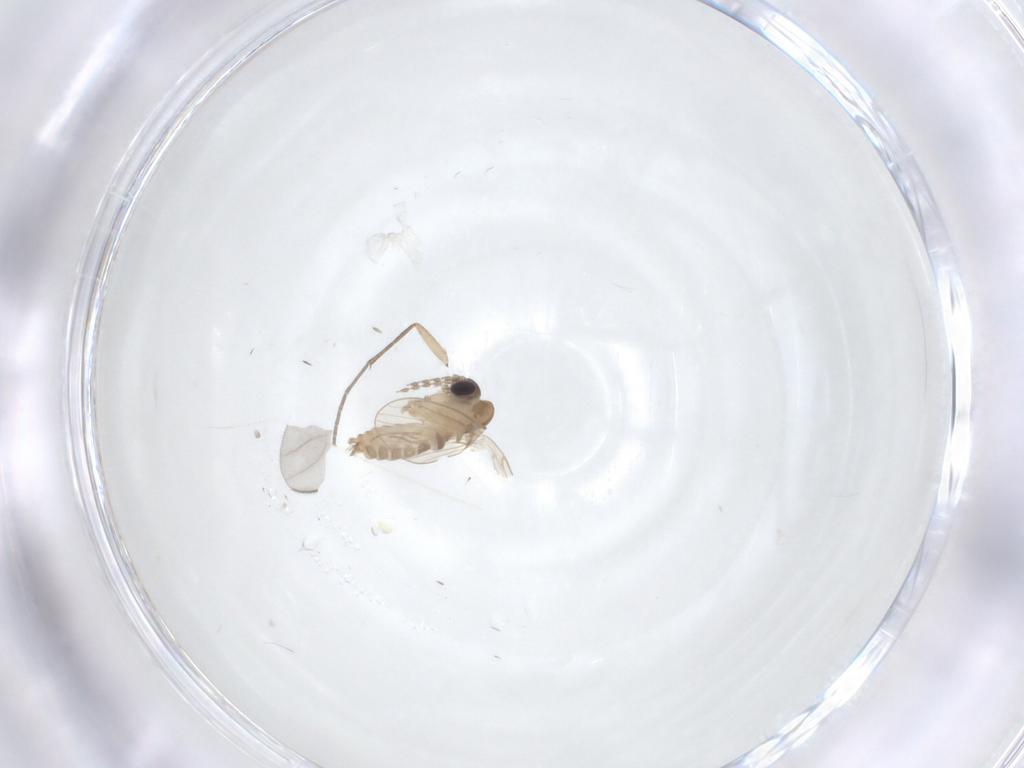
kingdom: Animalia
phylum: Arthropoda
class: Insecta
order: Diptera
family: Psychodidae
